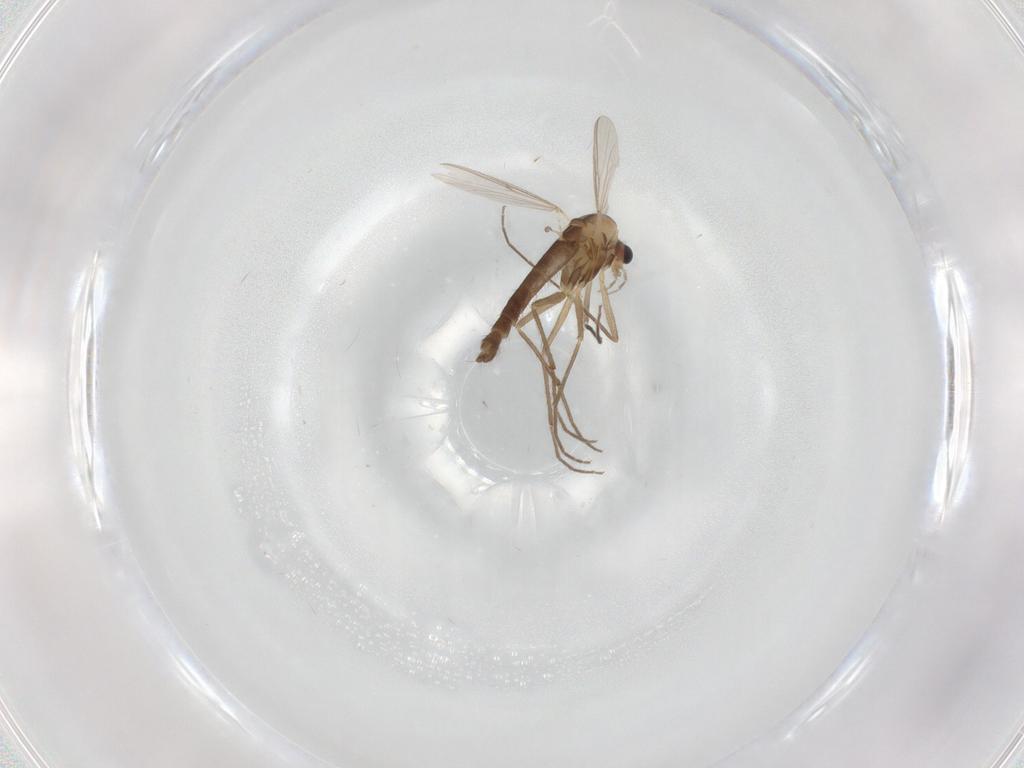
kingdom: Animalia
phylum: Arthropoda
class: Insecta
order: Diptera
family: Chironomidae
